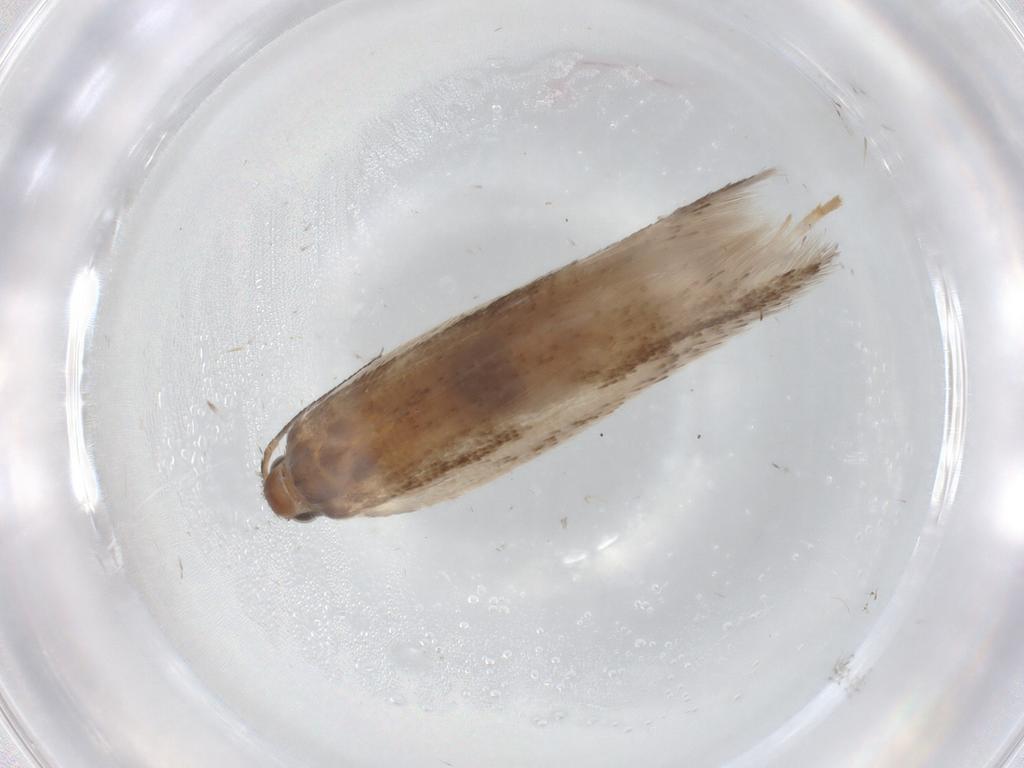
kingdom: Animalia
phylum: Arthropoda
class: Insecta
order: Lepidoptera
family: Gelechiidae
